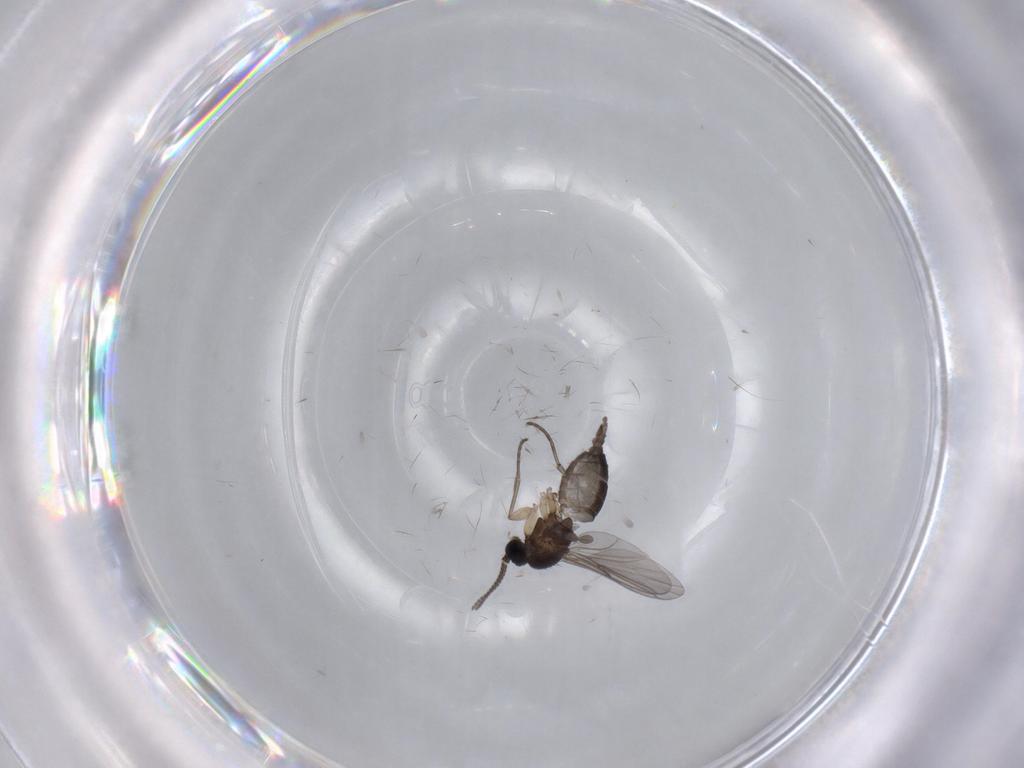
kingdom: Animalia
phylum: Arthropoda
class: Insecta
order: Diptera
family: Sciaridae
